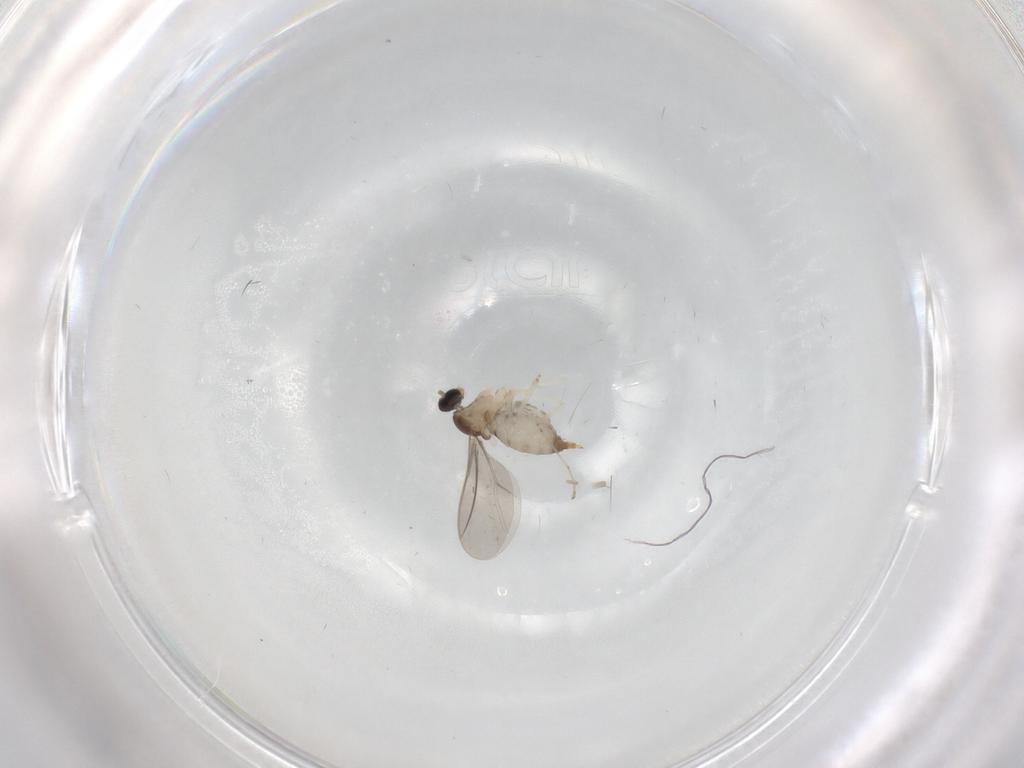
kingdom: Animalia
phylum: Arthropoda
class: Insecta
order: Diptera
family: Cecidomyiidae
